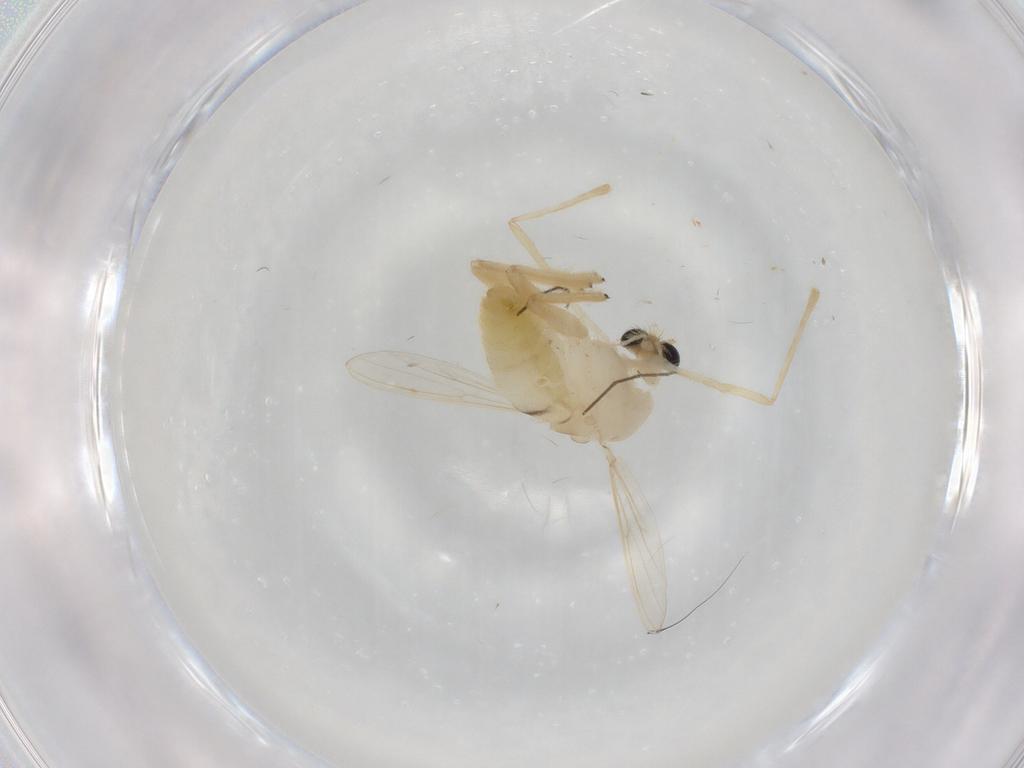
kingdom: Animalia
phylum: Arthropoda
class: Insecta
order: Diptera
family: Chironomidae
